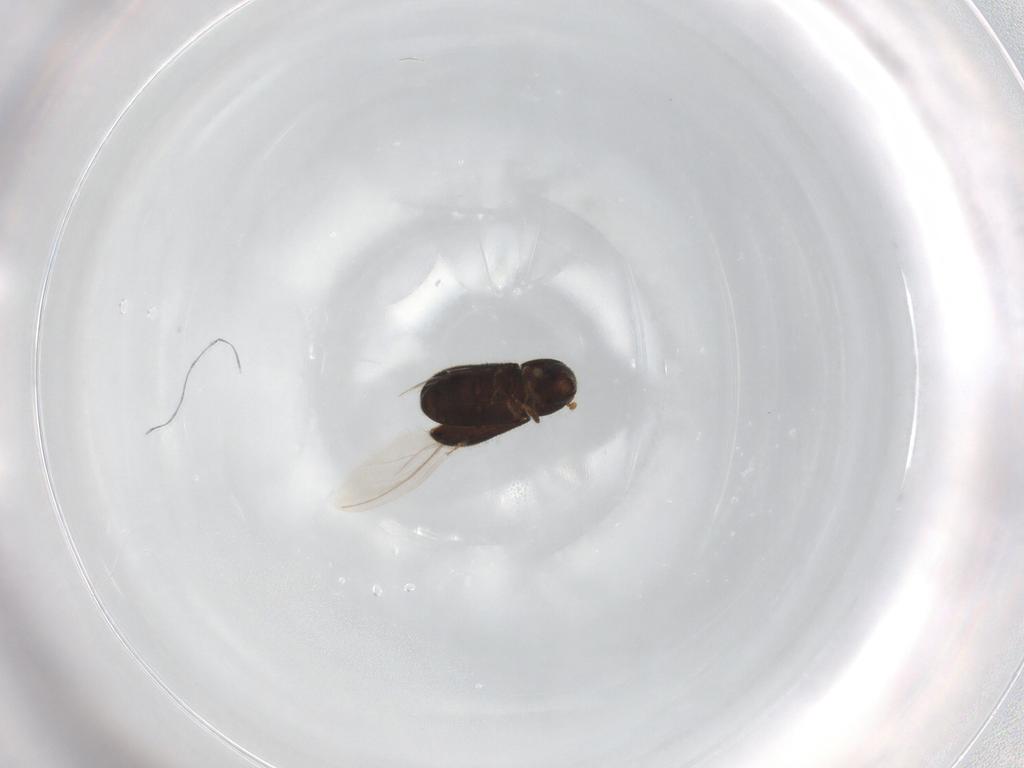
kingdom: Animalia
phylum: Arthropoda
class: Insecta
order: Coleoptera
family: Curculionidae
